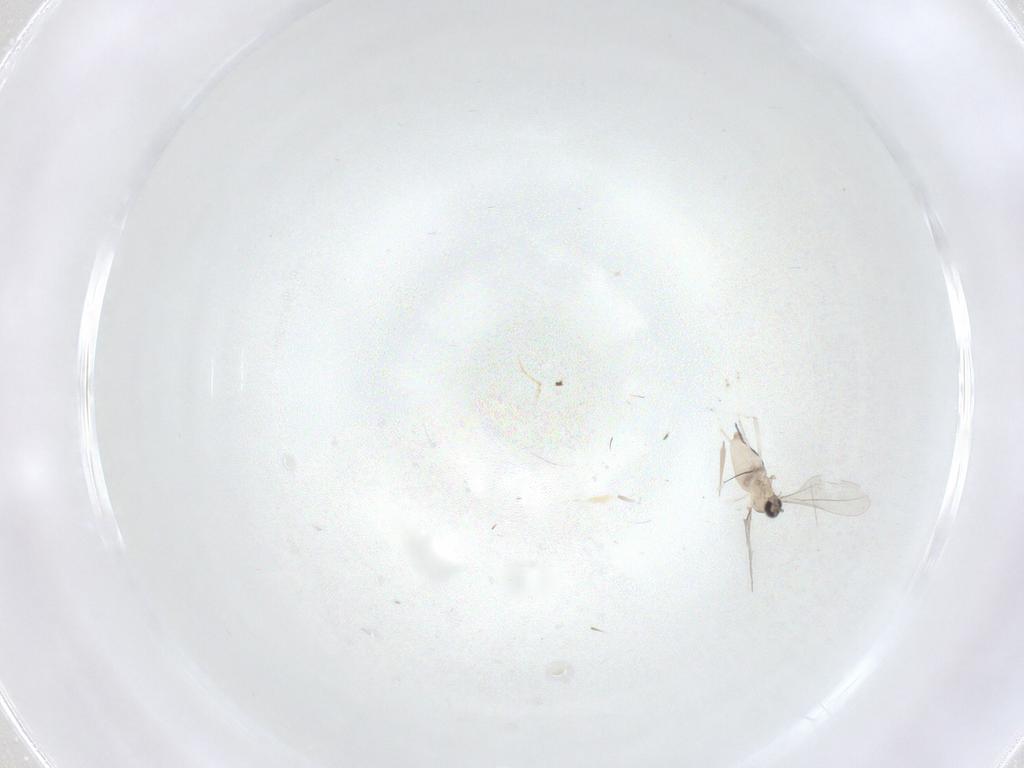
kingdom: Animalia
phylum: Arthropoda
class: Insecta
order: Diptera
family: Cecidomyiidae
